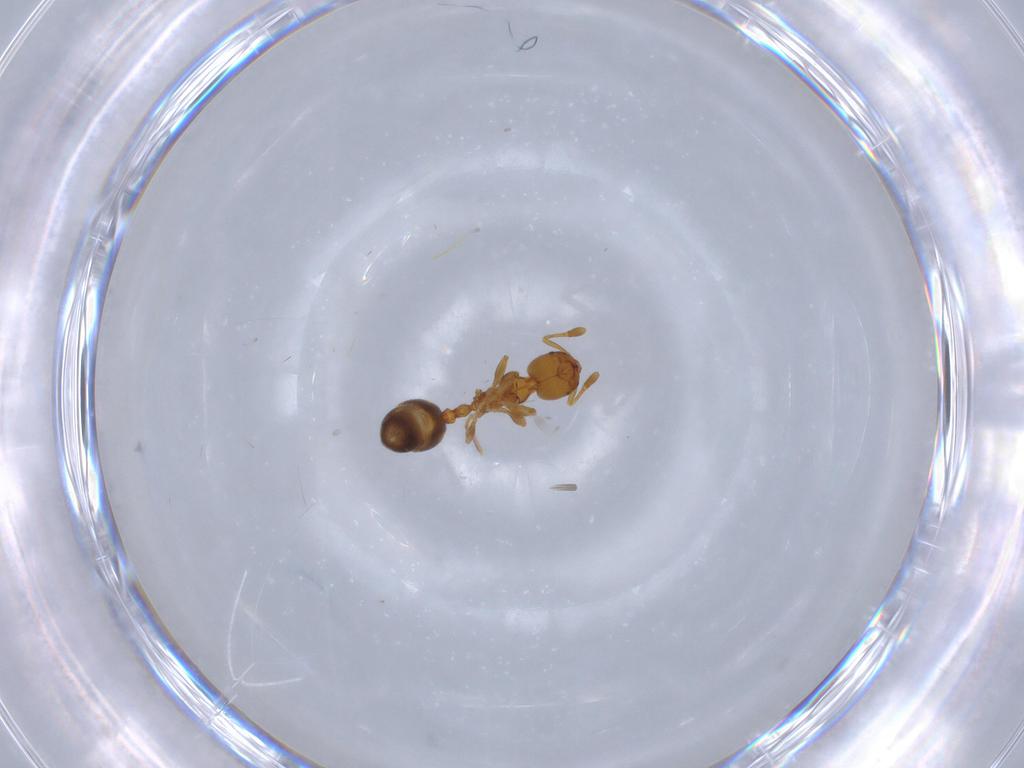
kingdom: Animalia
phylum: Arthropoda
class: Insecta
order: Hymenoptera
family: Formicidae
